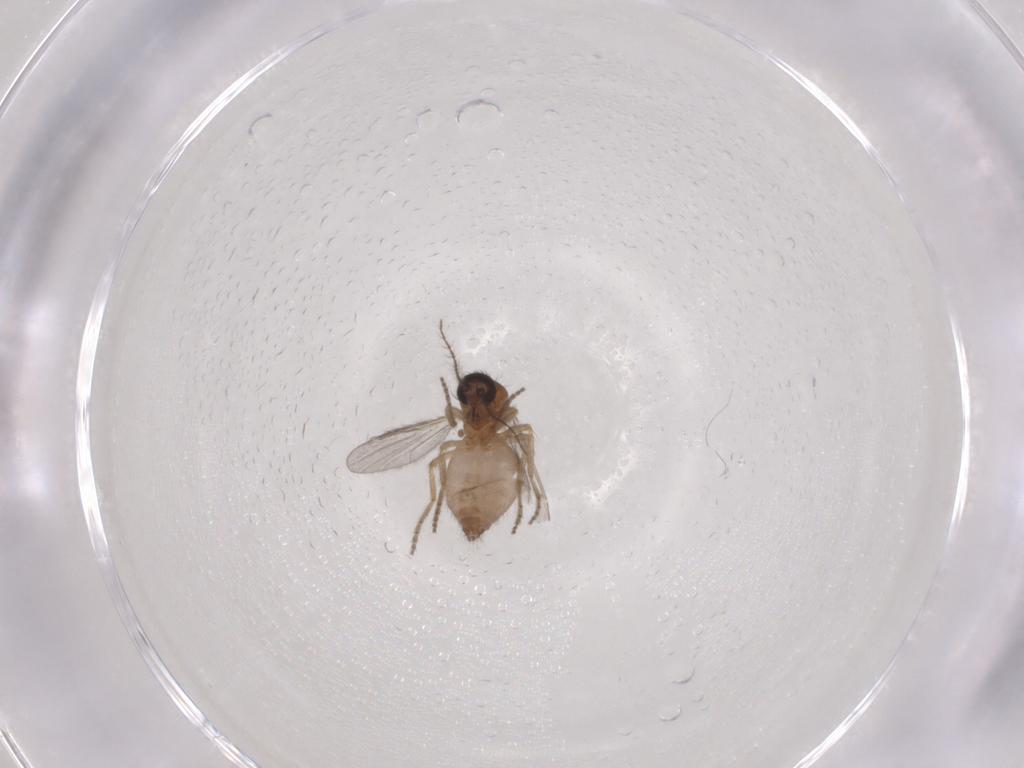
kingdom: Animalia
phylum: Arthropoda
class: Insecta
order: Diptera
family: Ceratopogonidae
